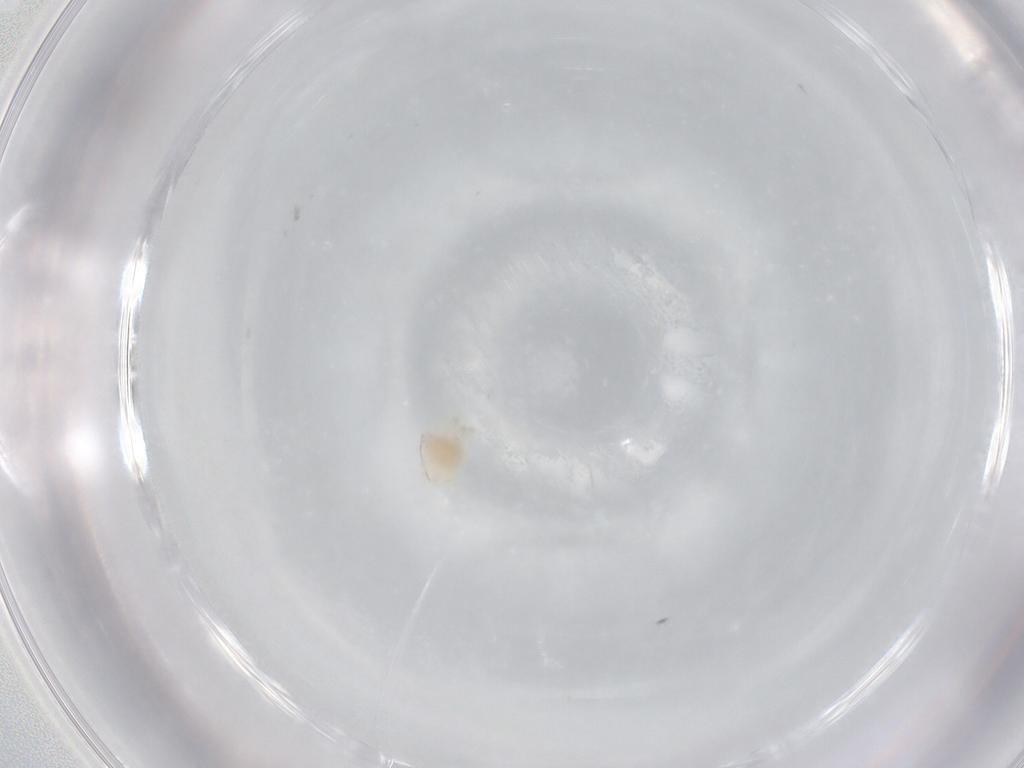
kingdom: Animalia
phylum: Arthropoda
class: Arachnida
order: Trombidiformes
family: Anystidae
